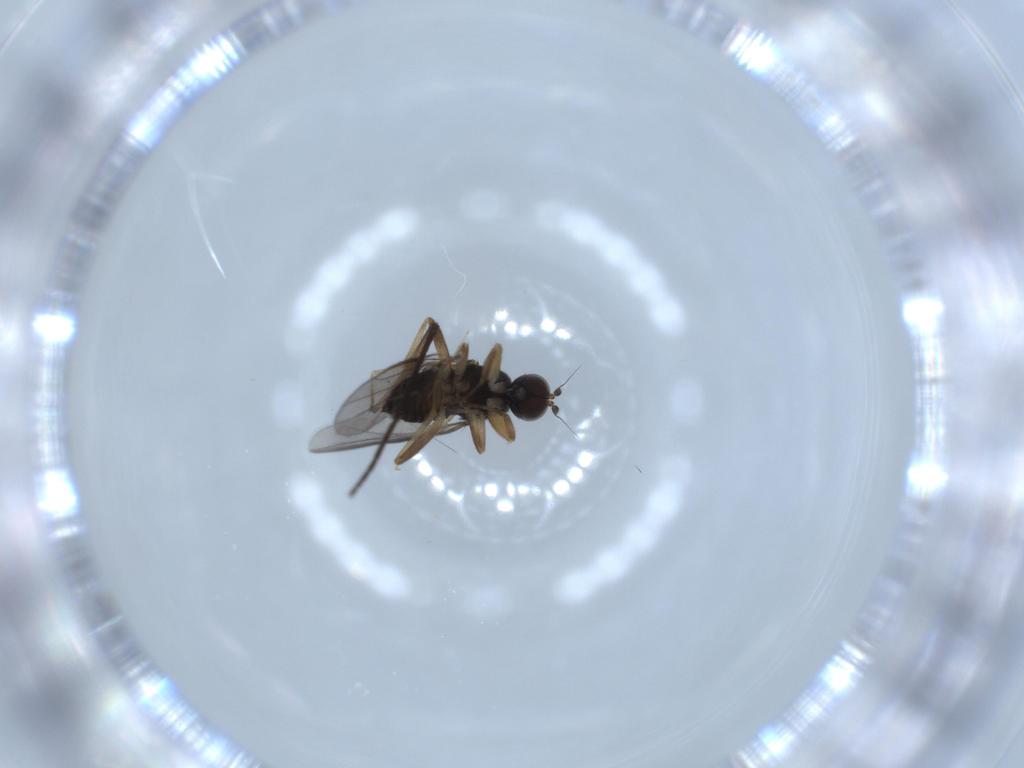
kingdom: Animalia
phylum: Arthropoda
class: Insecta
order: Diptera
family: Hybotidae
